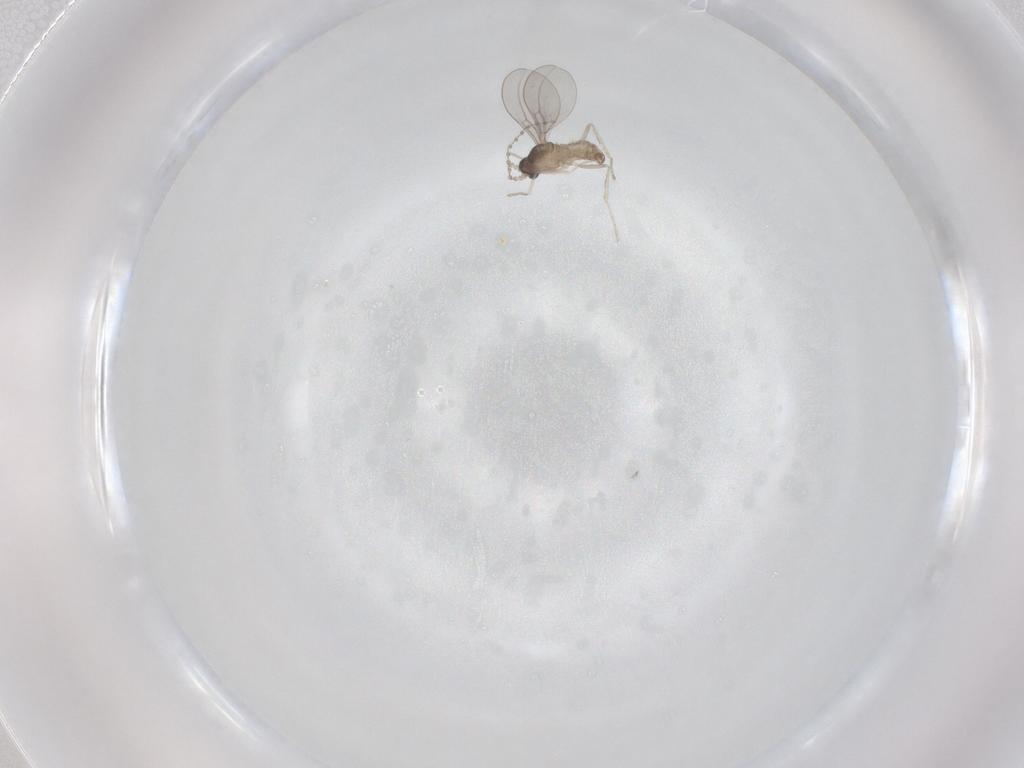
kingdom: Animalia
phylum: Arthropoda
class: Insecta
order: Diptera
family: Cecidomyiidae
